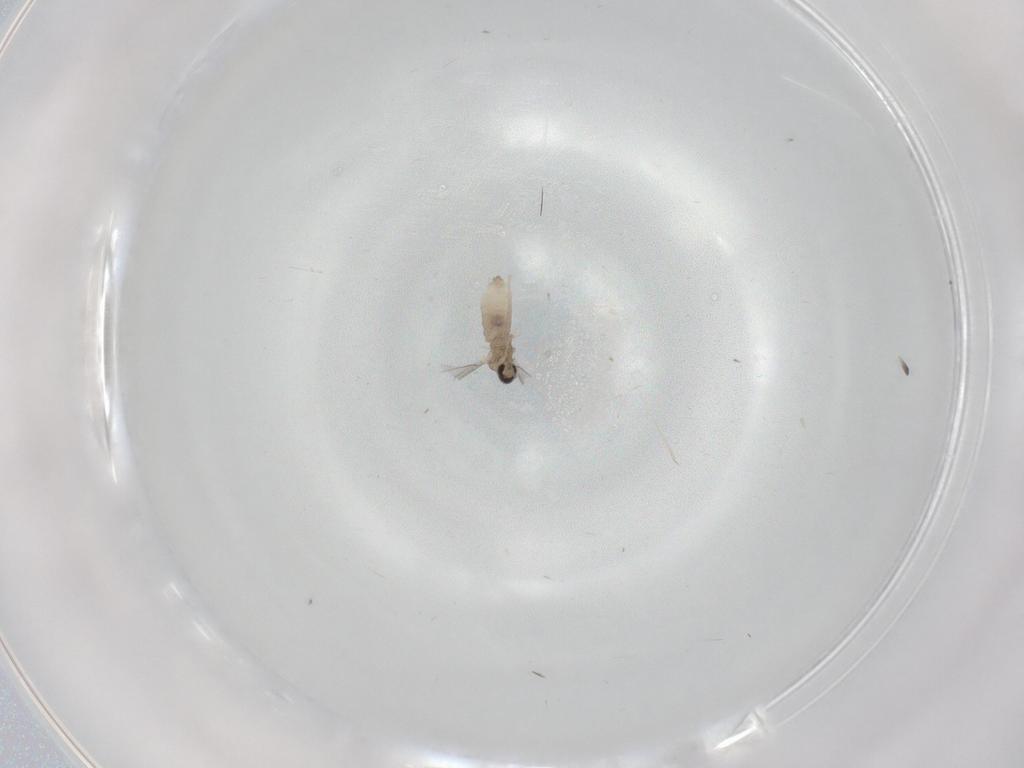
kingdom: Animalia
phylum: Arthropoda
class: Insecta
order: Diptera
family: Cecidomyiidae
